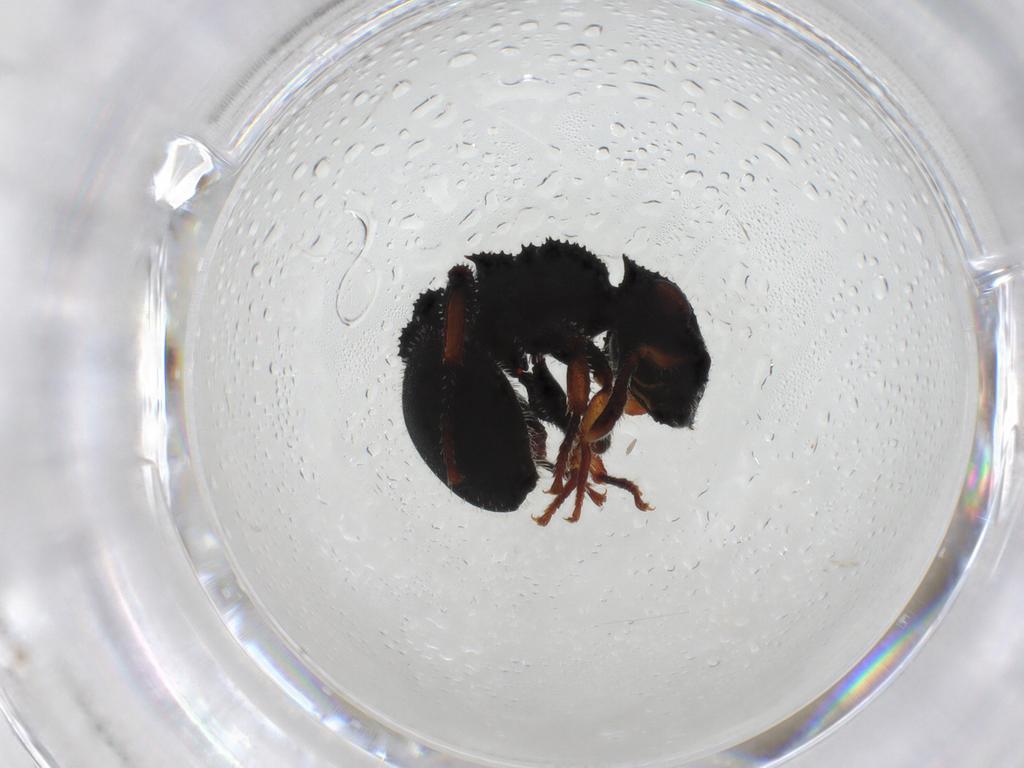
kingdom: Animalia
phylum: Arthropoda
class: Insecta
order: Hymenoptera
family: Formicidae
